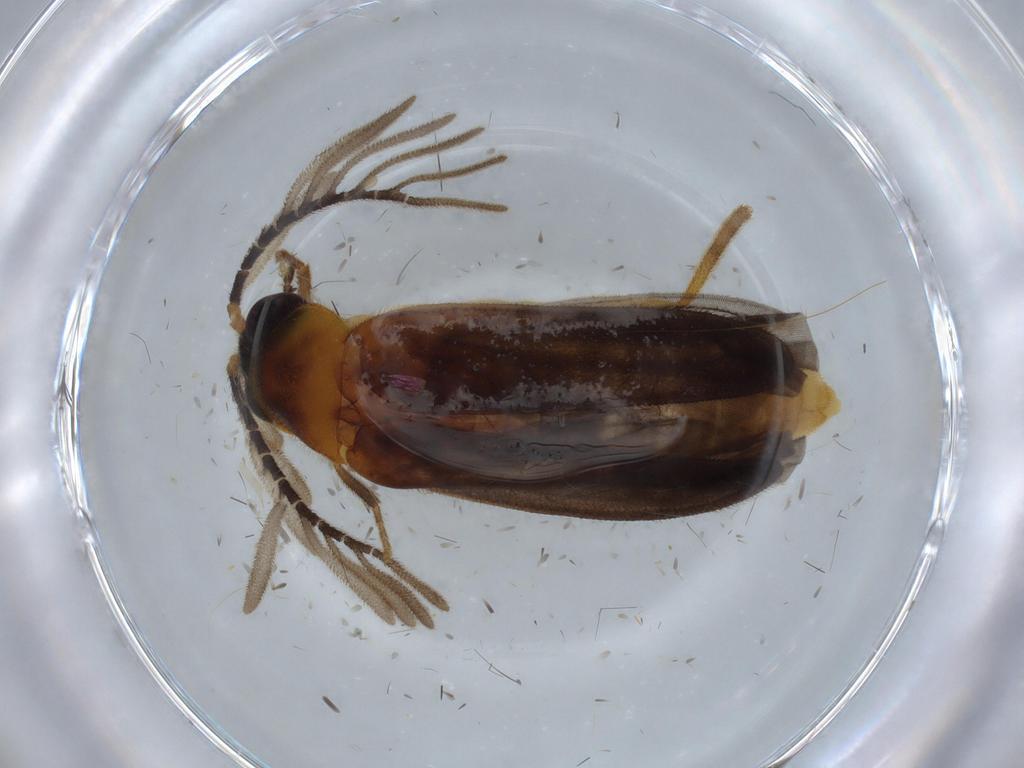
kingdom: Animalia
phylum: Arthropoda
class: Insecta
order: Coleoptera
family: Lampyridae
